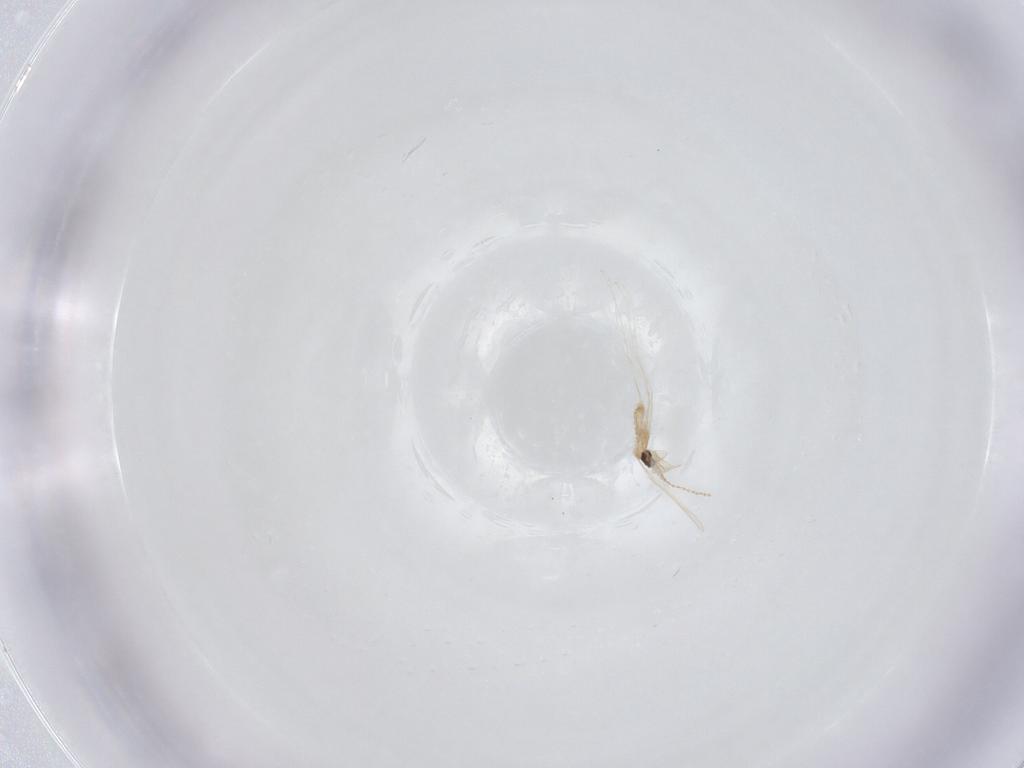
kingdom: Animalia
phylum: Arthropoda
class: Insecta
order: Diptera
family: Cecidomyiidae
